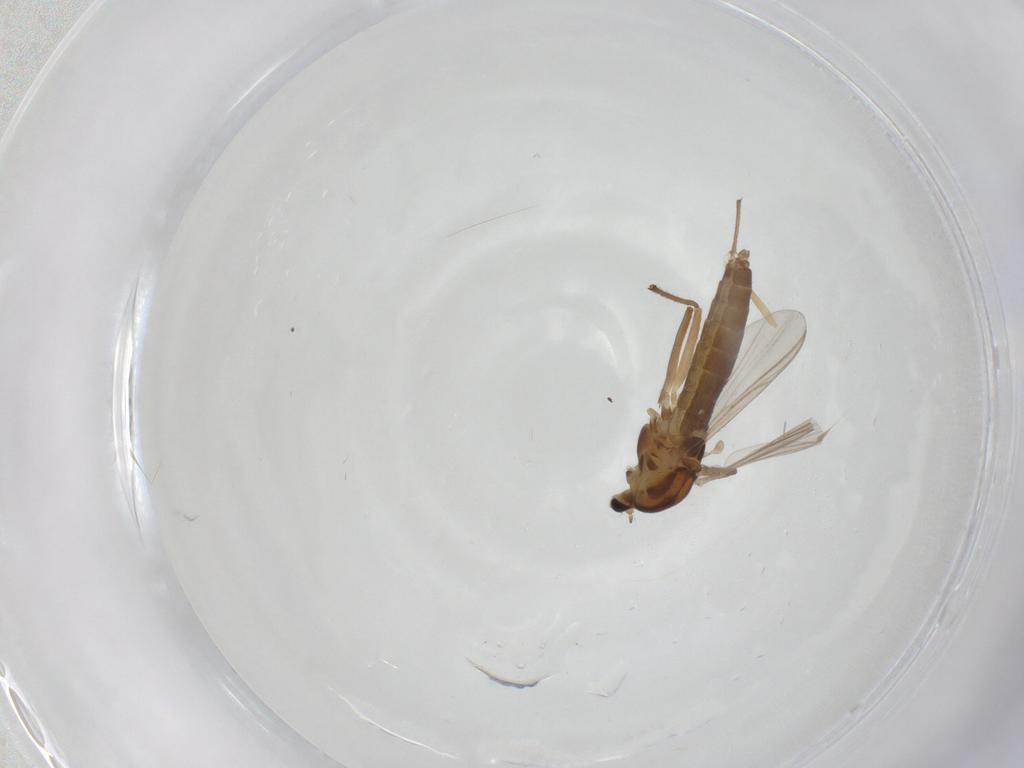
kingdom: Animalia
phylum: Arthropoda
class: Insecta
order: Diptera
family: Chironomidae
